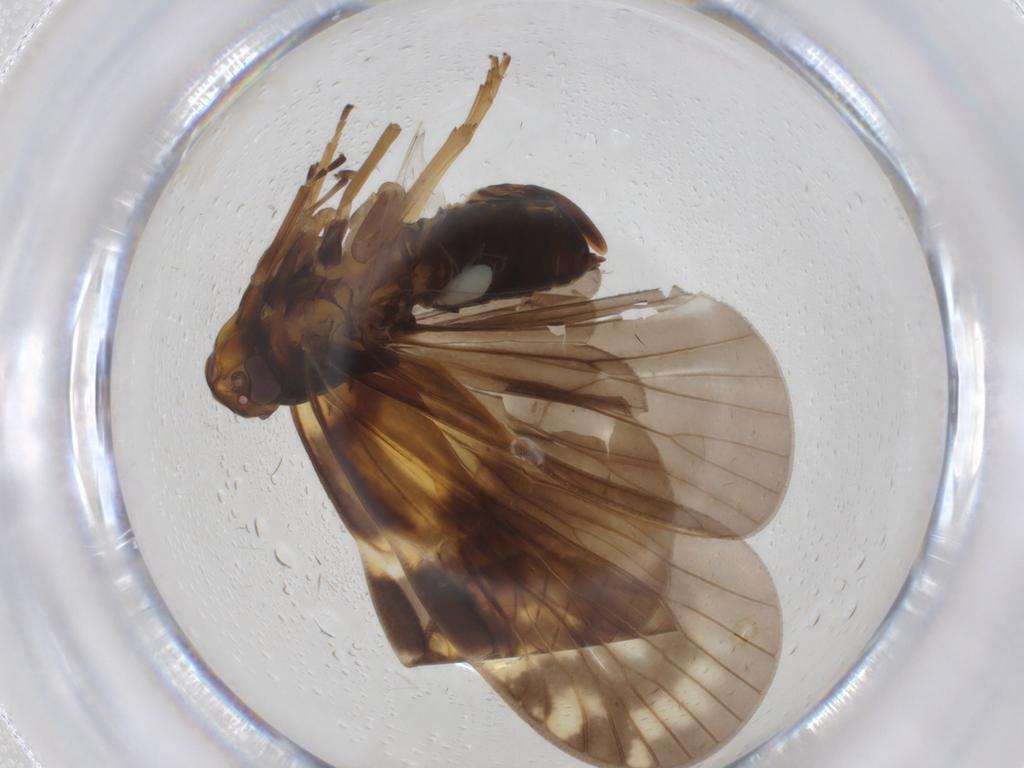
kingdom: Animalia
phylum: Arthropoda
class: Insecta
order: Hemiptera
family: Cixiidae
